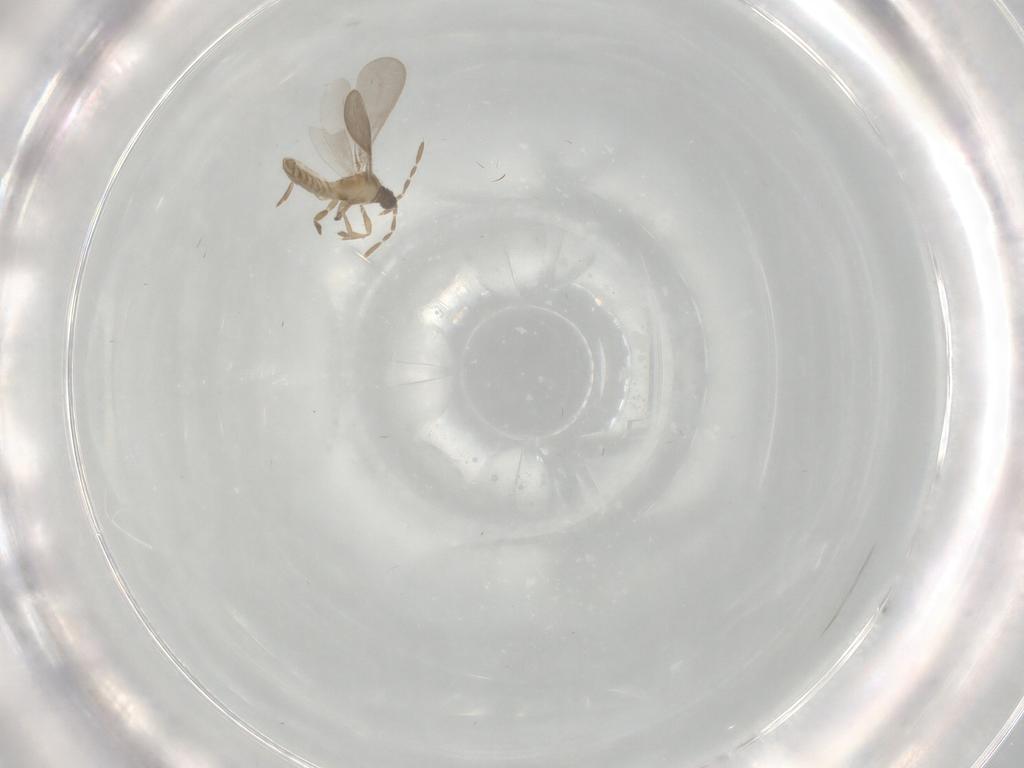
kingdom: Animalia
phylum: Arthropoda
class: Insecta
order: Hemiptera
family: Enicocephalidae
